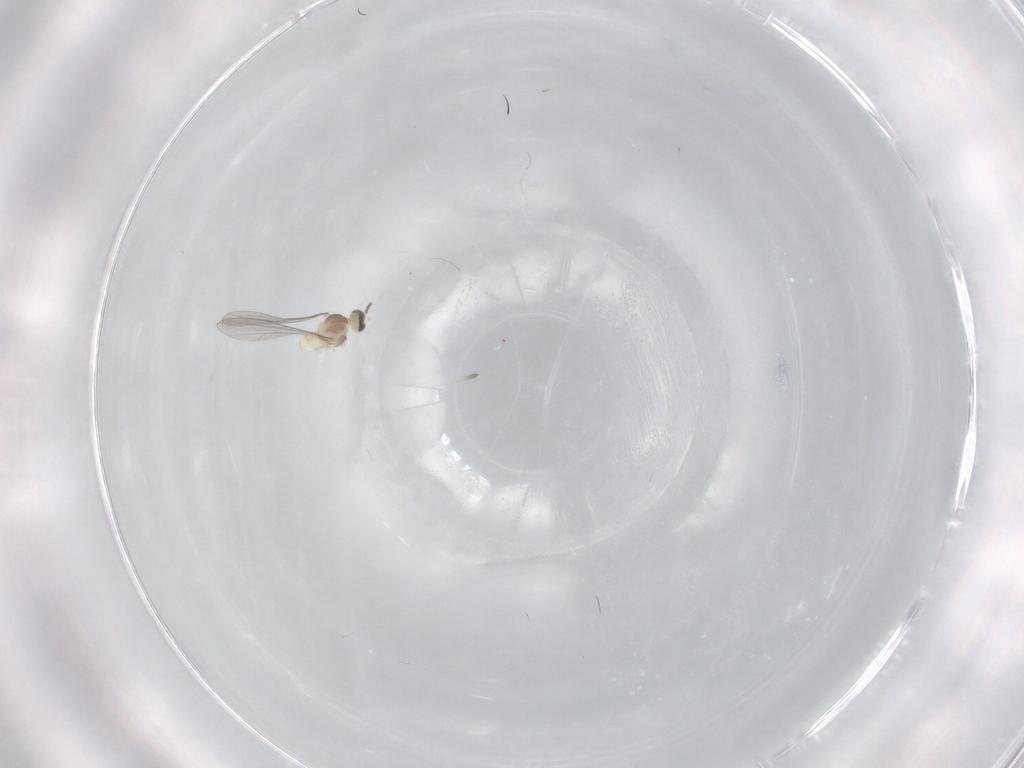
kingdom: Animalia
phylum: Arthropoda
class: Insecta
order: Diptera
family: Cecidomyiidae
